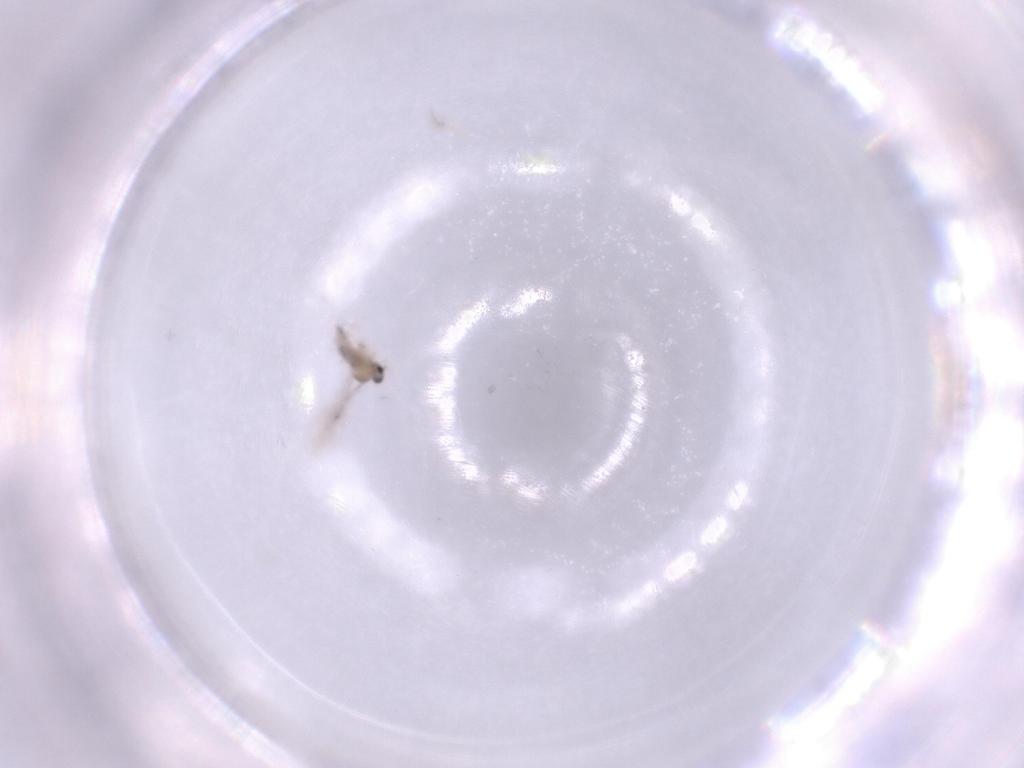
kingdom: Animalia
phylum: Arthropoda
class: Insecta
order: Diptera
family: Cecidomyiidae
